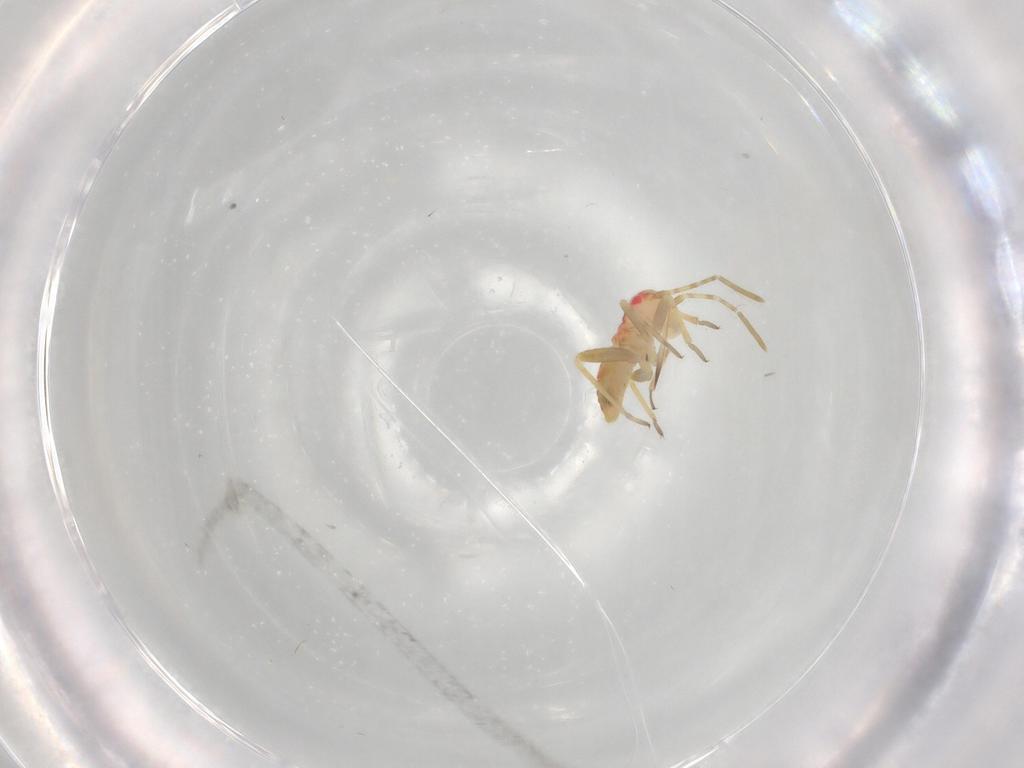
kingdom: Animalia
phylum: Arthropoda
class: Insecta
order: Hemiptera
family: Miridae
